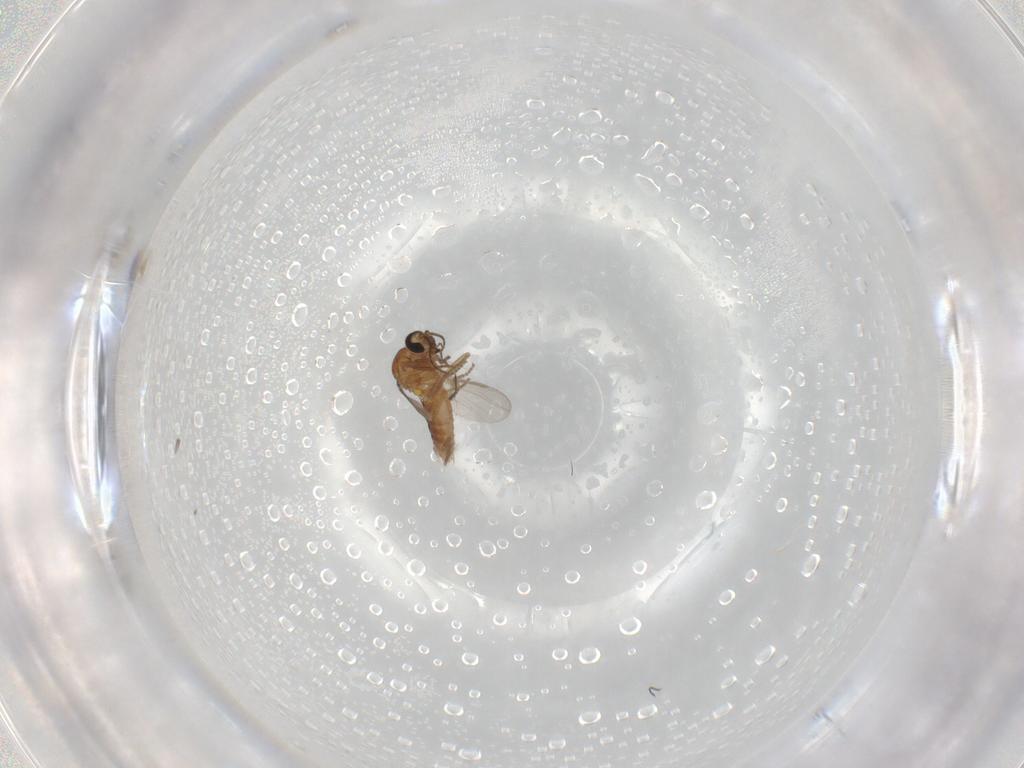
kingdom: Animalia
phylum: Arthropoda
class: Insecta
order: Diptera
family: Ceratopogonidae
